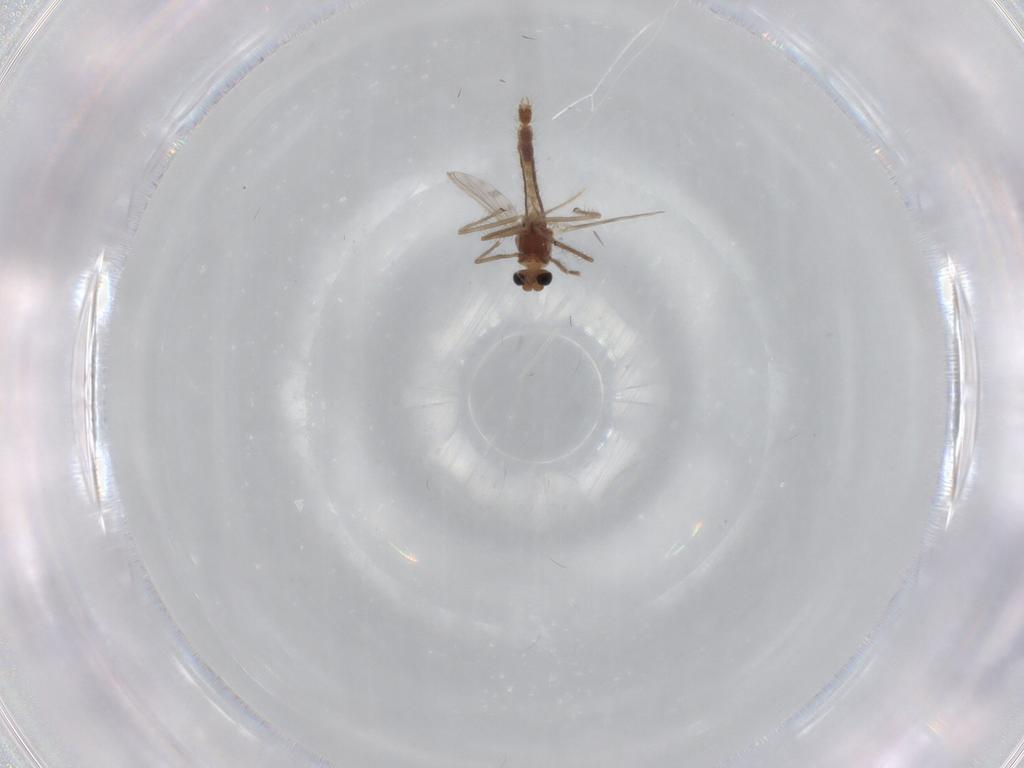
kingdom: Animalia
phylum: Arthropoda
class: Insecta
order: Diptera
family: Chironomidae
